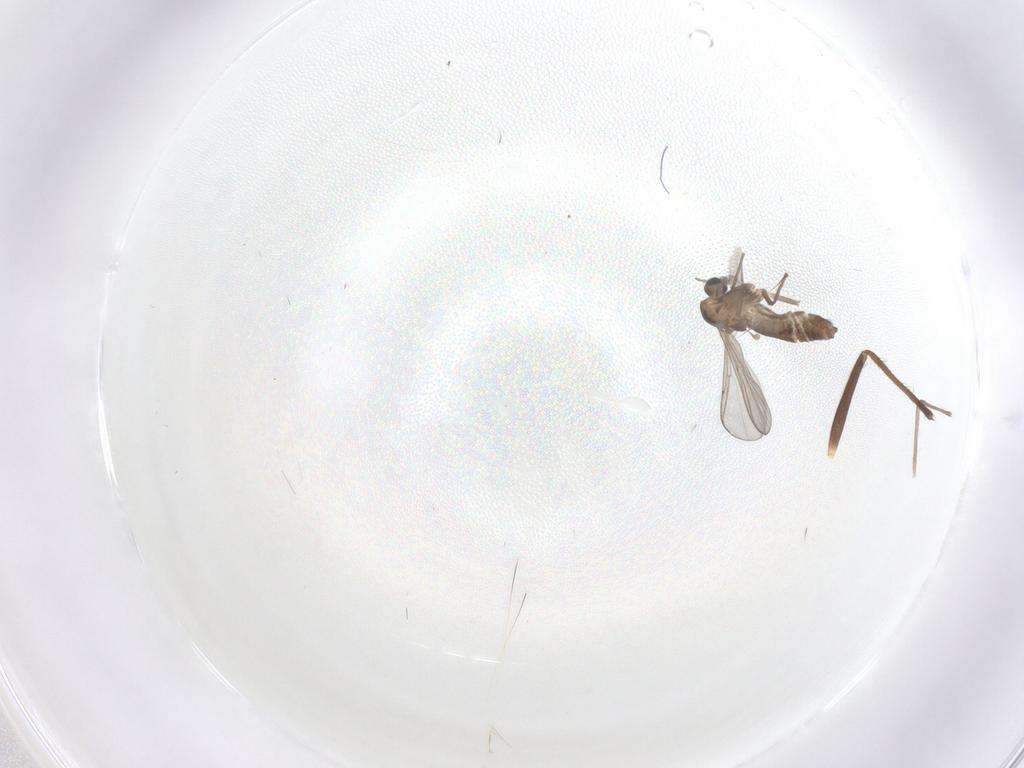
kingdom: Animalia
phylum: Arthropoda
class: Insecta
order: Diptera
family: Chironomidae
